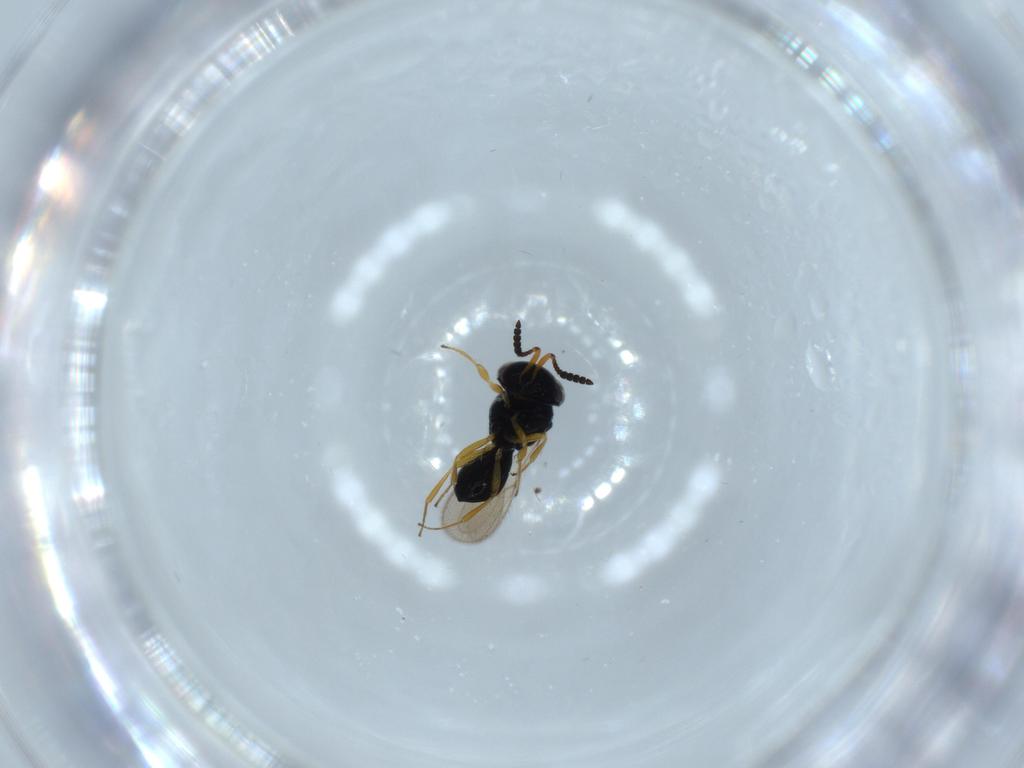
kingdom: Animalia
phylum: Arthropoda
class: Insecta
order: Hymenoptera
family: Scelionidae
